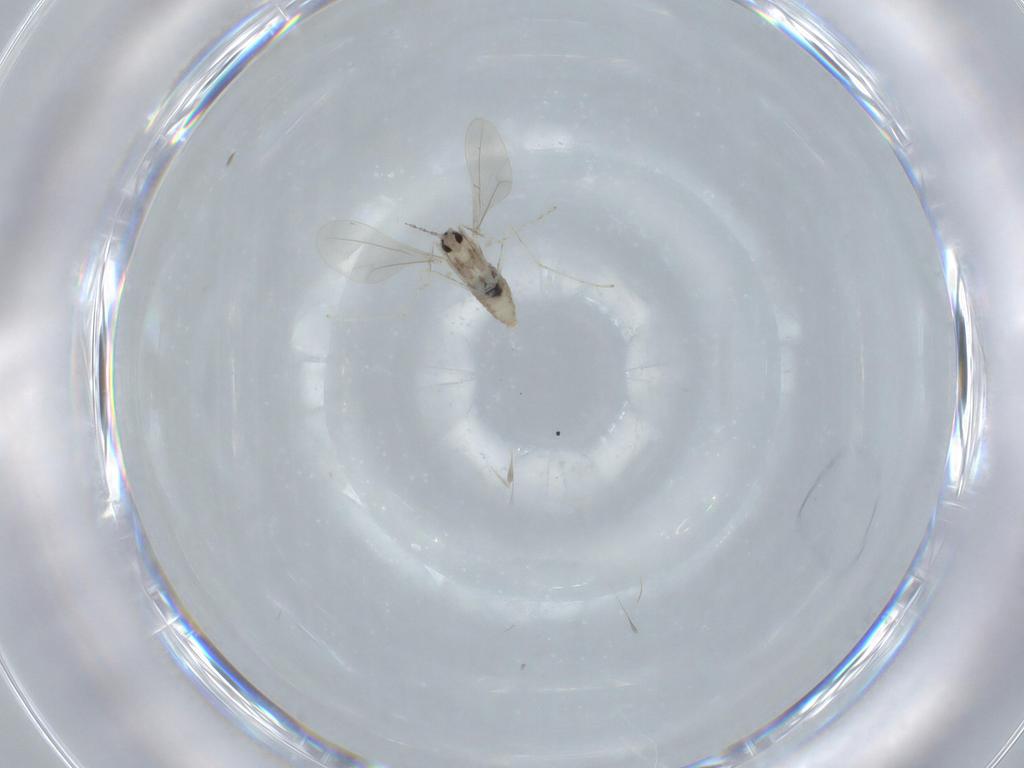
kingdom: Animalia
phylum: Arthropoda
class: Insecta
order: Diptera
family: Cecidomyiidae
